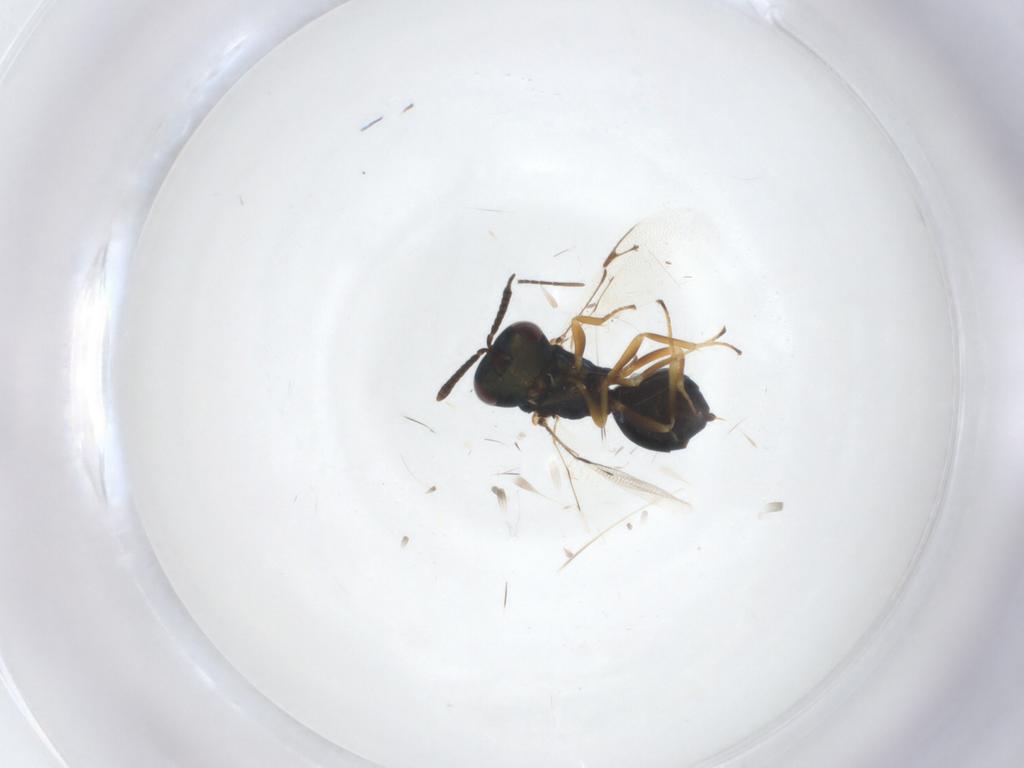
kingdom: Animalia
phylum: Arthropoda
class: Insecta
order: Hymenoptera
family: Pteromalidae
